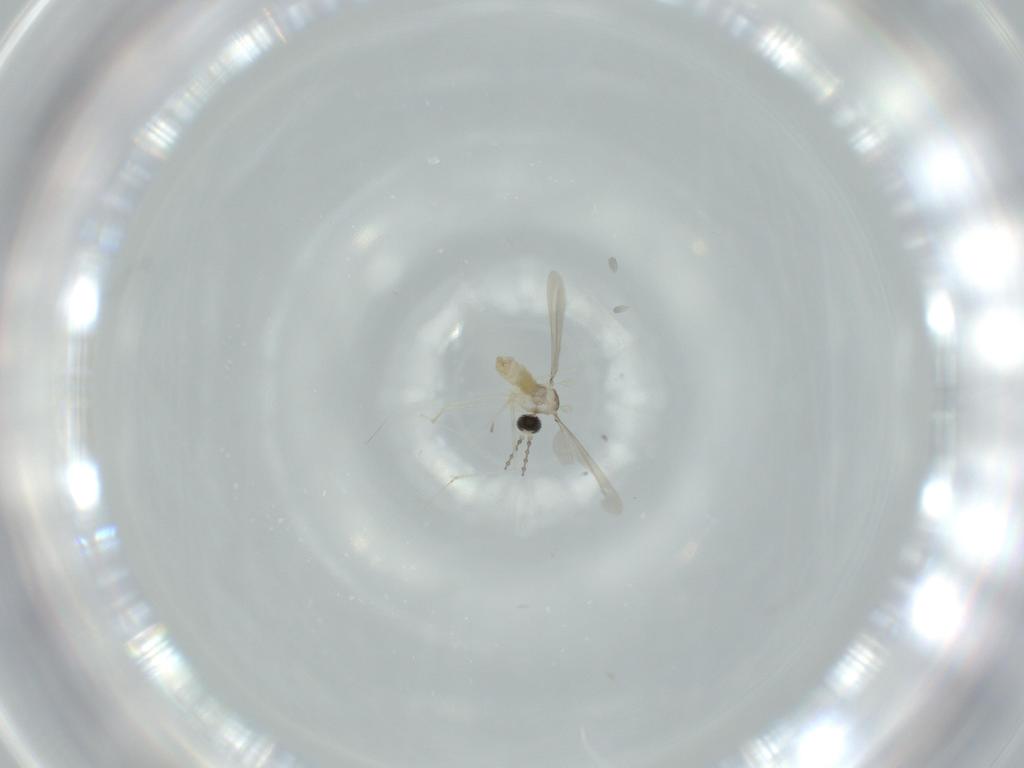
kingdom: Animalia
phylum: Arthropoda
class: Insecta
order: Diptera
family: Cecidomyiidae
